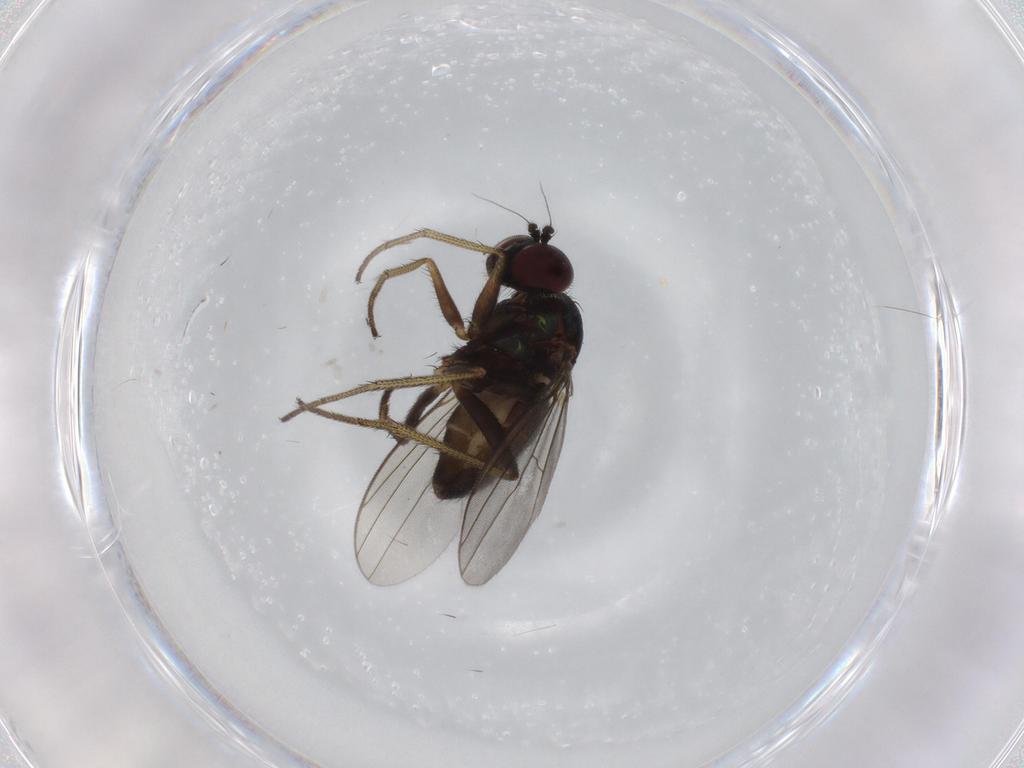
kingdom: Animalia
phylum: Arthropoda
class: Insecta
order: Diptera
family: Dolichopodidae
